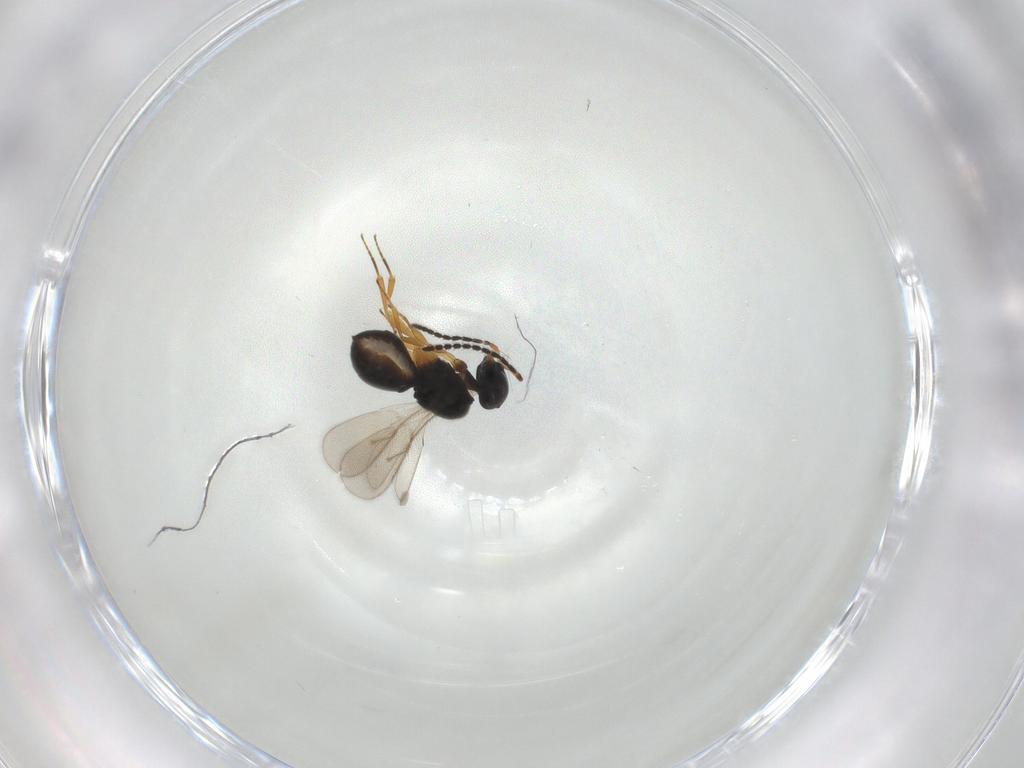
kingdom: Animalia
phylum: Arthropoda
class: Insecta
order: Hymenoptera
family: Scelionidae
